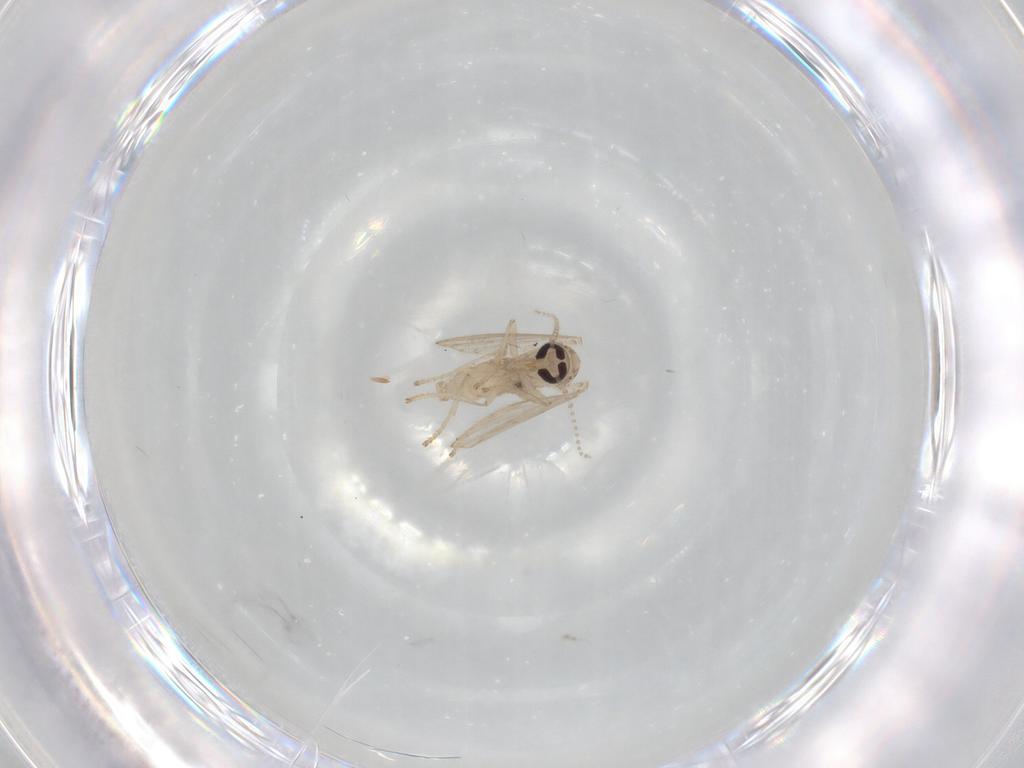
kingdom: Animalia
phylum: Arthropoda
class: Insecta
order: Diptera
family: Psychodidae
